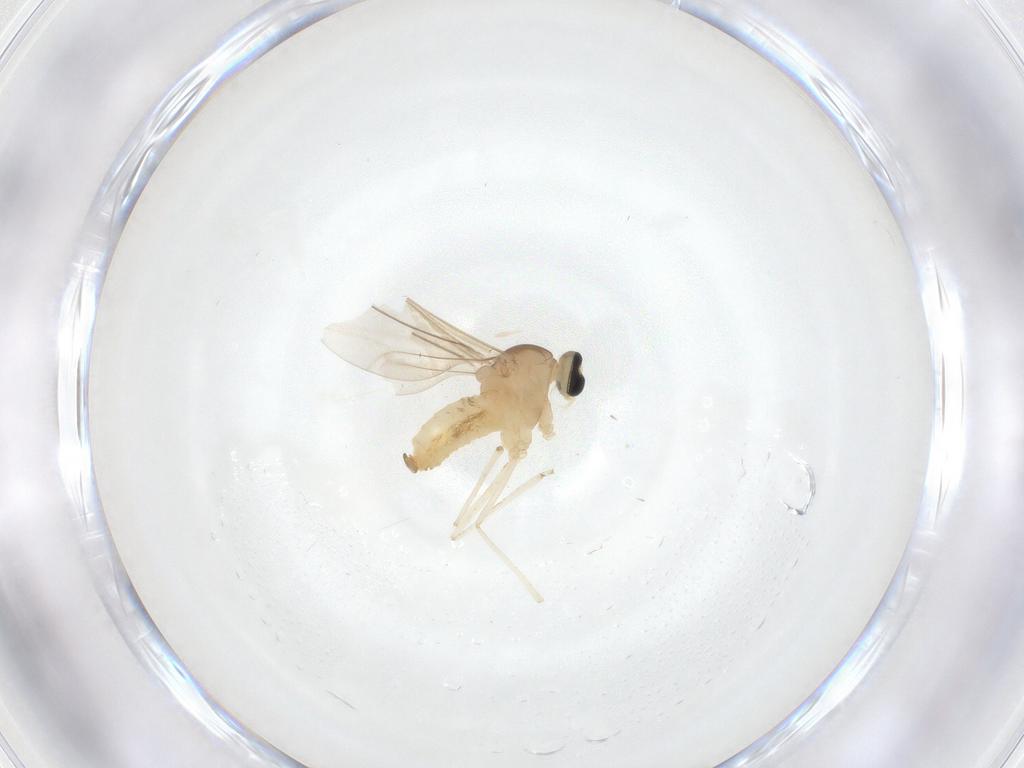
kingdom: Animalia
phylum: Arthropoda
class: Insecta
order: Diptera
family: Cecidomyiidae
